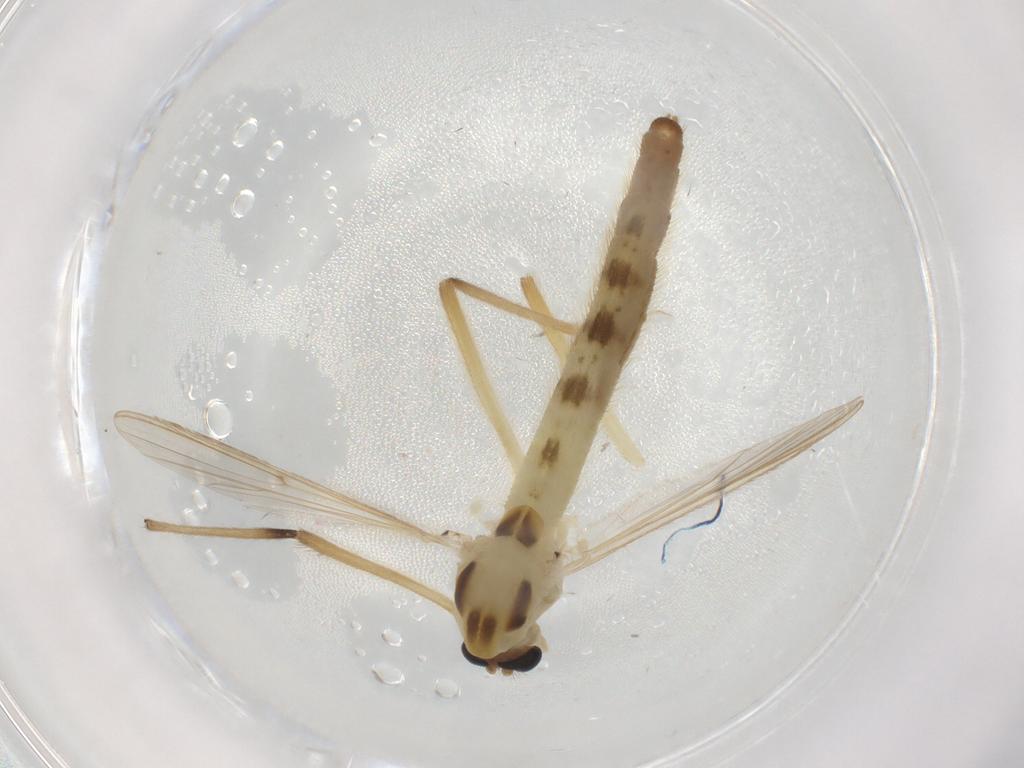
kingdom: Animalia
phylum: Arthropoda
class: Insecta
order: Diptera
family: Chironomidae
